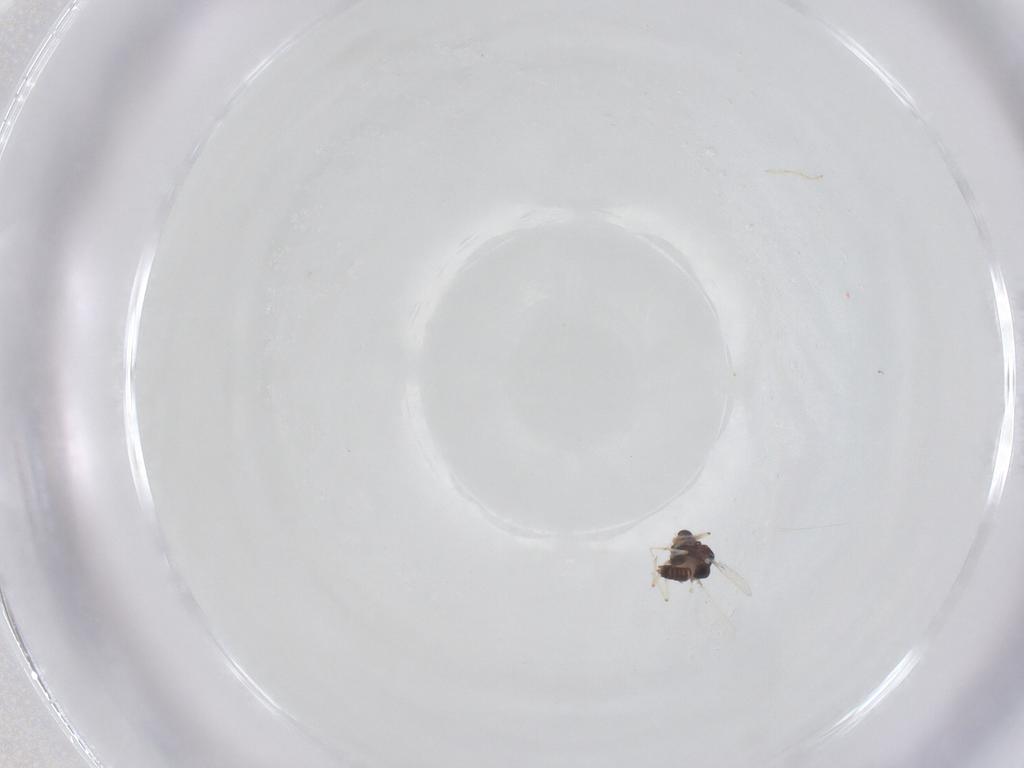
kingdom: Animalia
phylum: Arthropoda
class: Insecta
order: Diptera
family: Chironomidae
